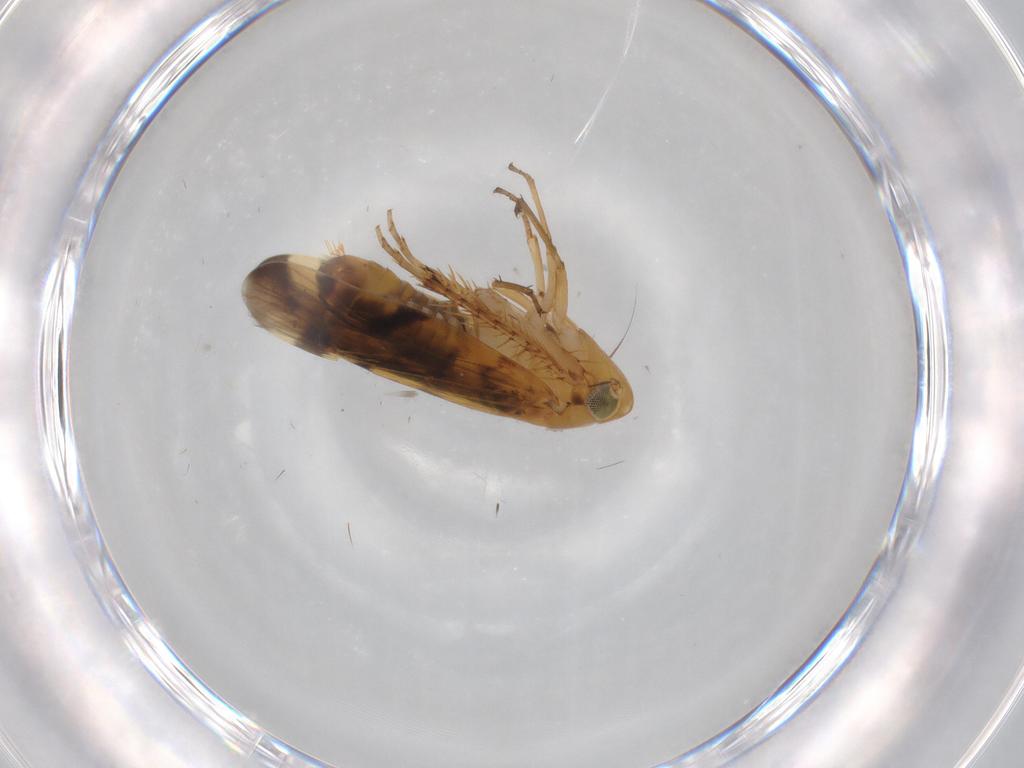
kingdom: Animalia
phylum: Arthropoda
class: Insecta
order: Hemiptera
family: Cicadellidae
